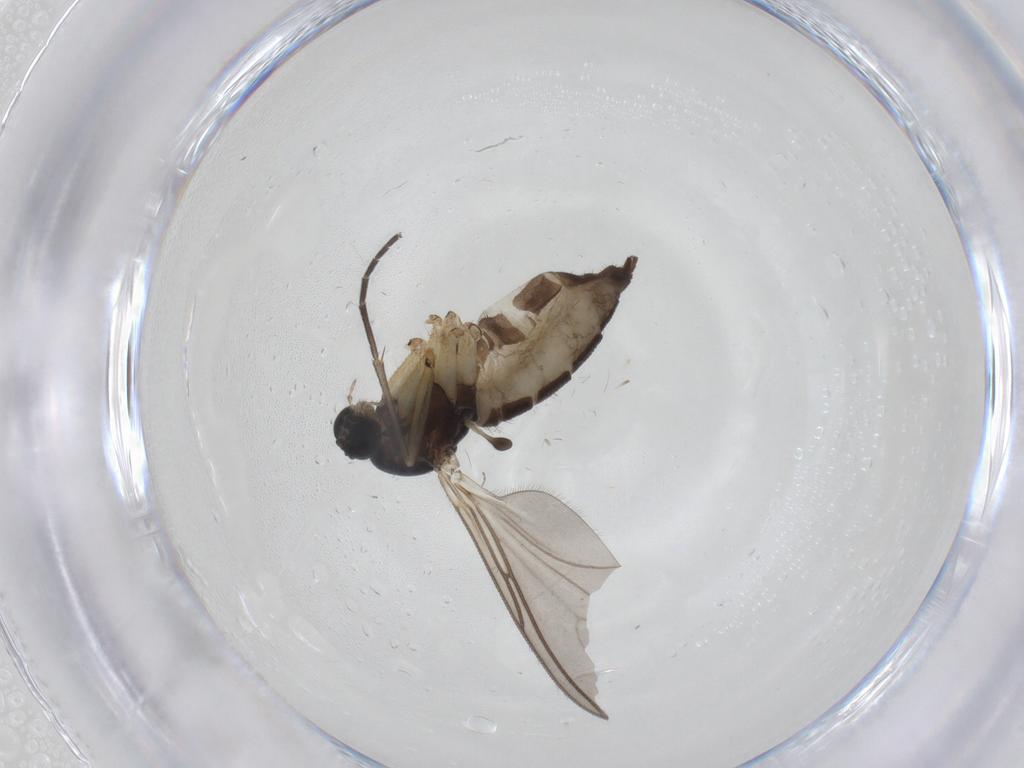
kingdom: Animalia
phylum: Arthropoda
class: Insecta
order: Diptera
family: Sciaridae
